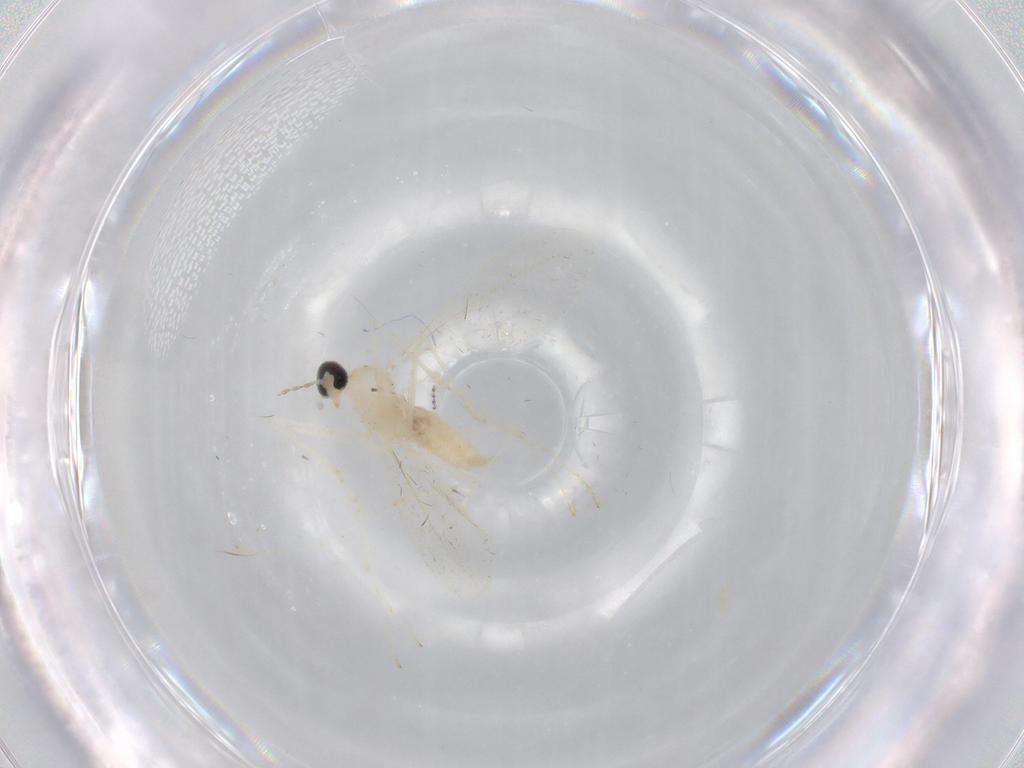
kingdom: Animalia
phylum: Arthropoda
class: Insecta
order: Diptera
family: Cecidomyiidae
